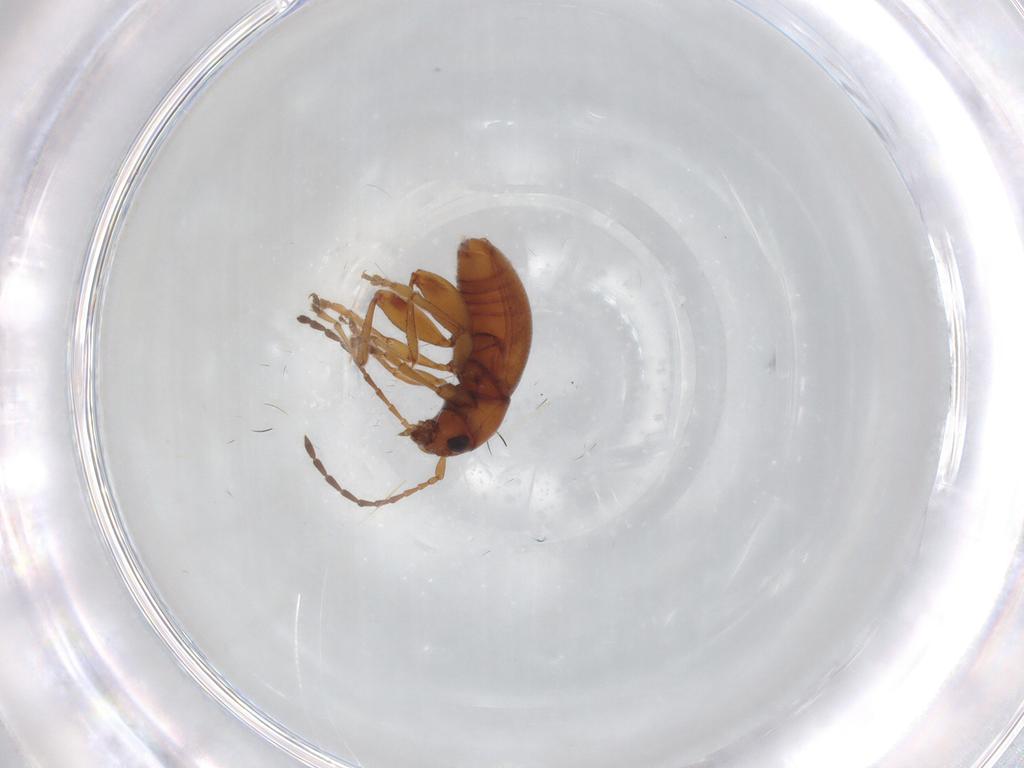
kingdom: Animalia
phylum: Arthropoda
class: Insecta
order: Coleoptera
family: Chrysomelidae
